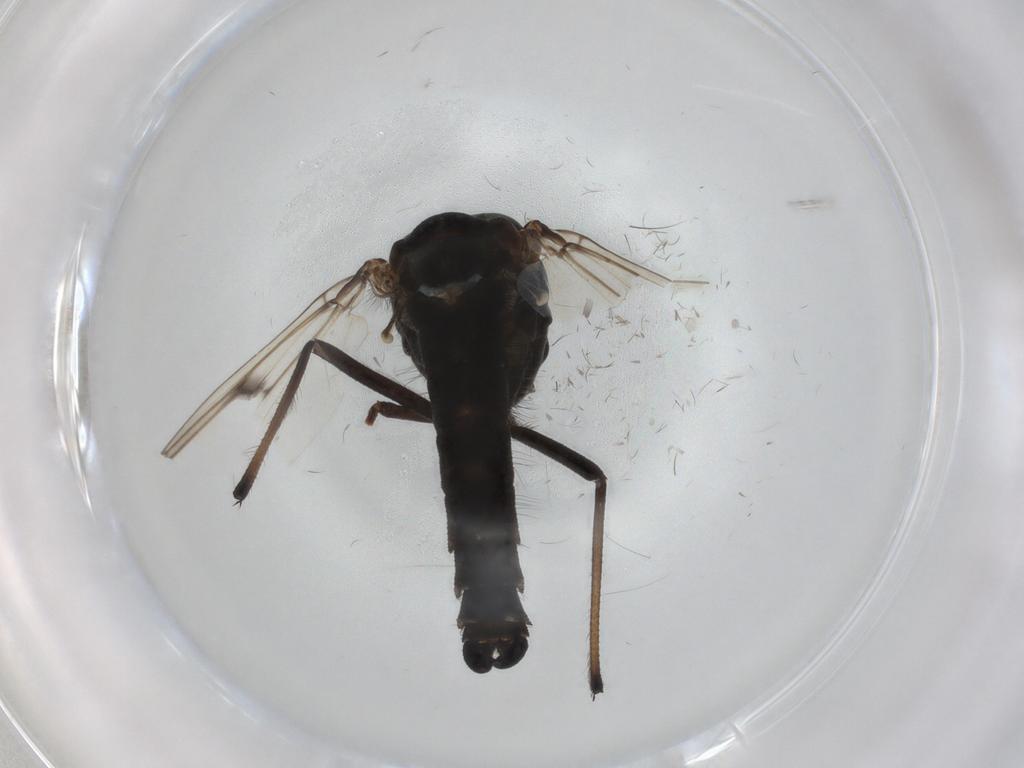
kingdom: Animalia
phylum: Arthropoda
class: Insecta
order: Diptera
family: Chironomidae
